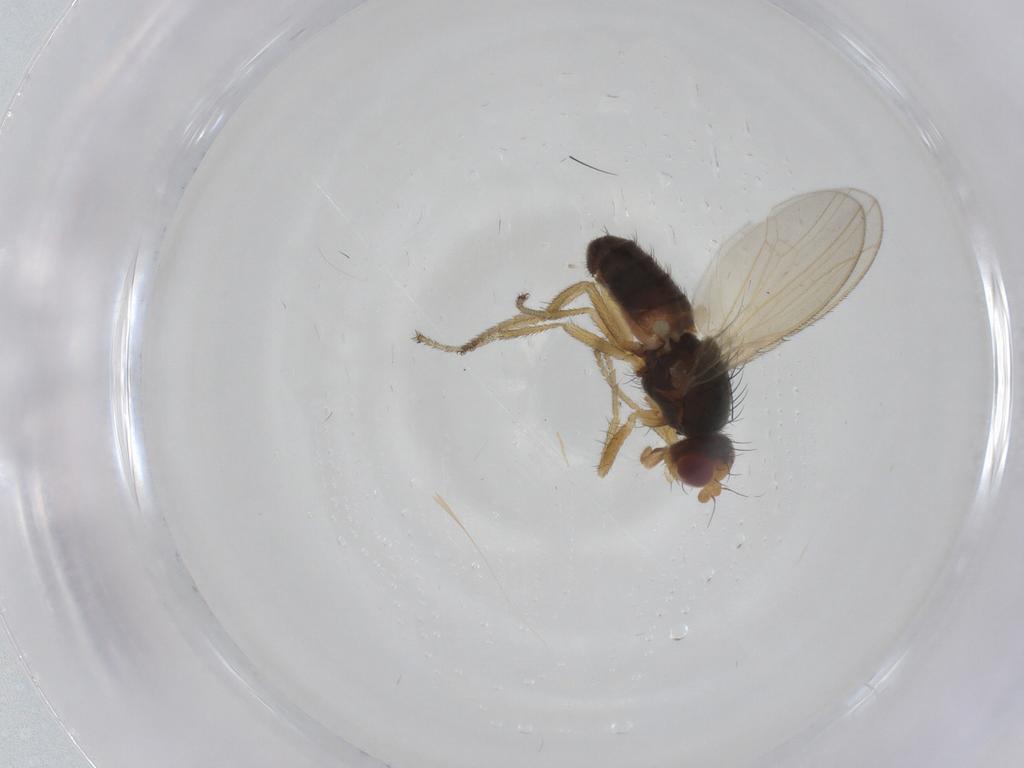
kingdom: Animalia
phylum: Arthropoda
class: Insecta
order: Diptera
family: Heleomyzidae
